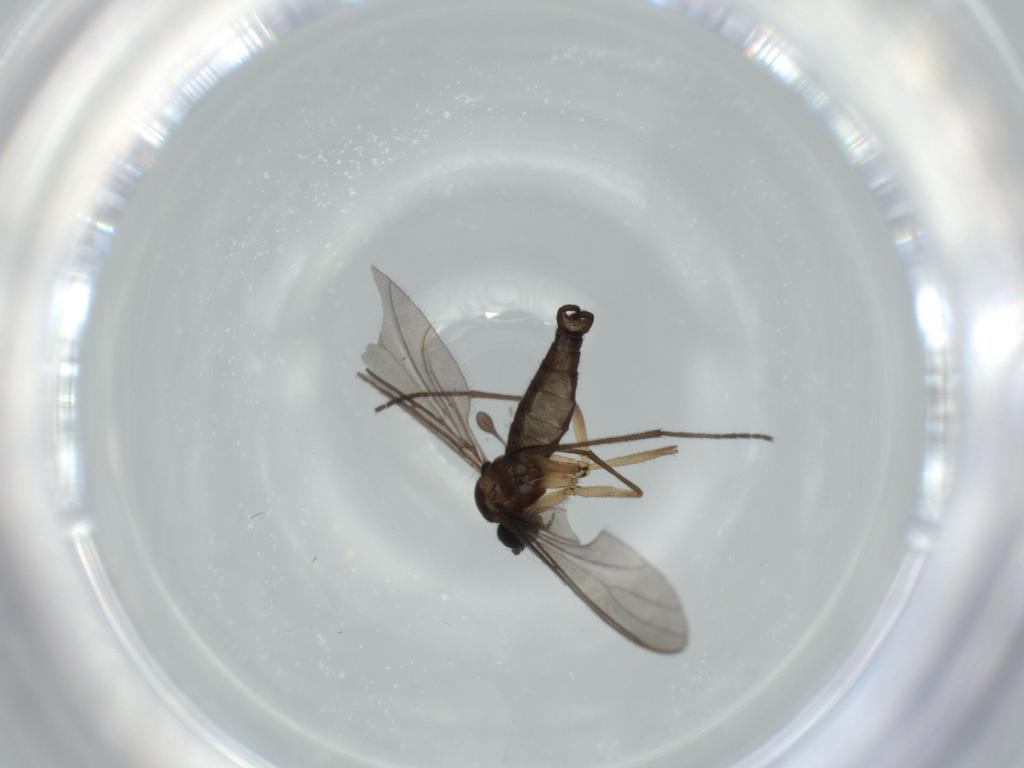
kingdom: Animalia
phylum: Arthropoda
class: Insecta
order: Diptera
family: Sciaridae
